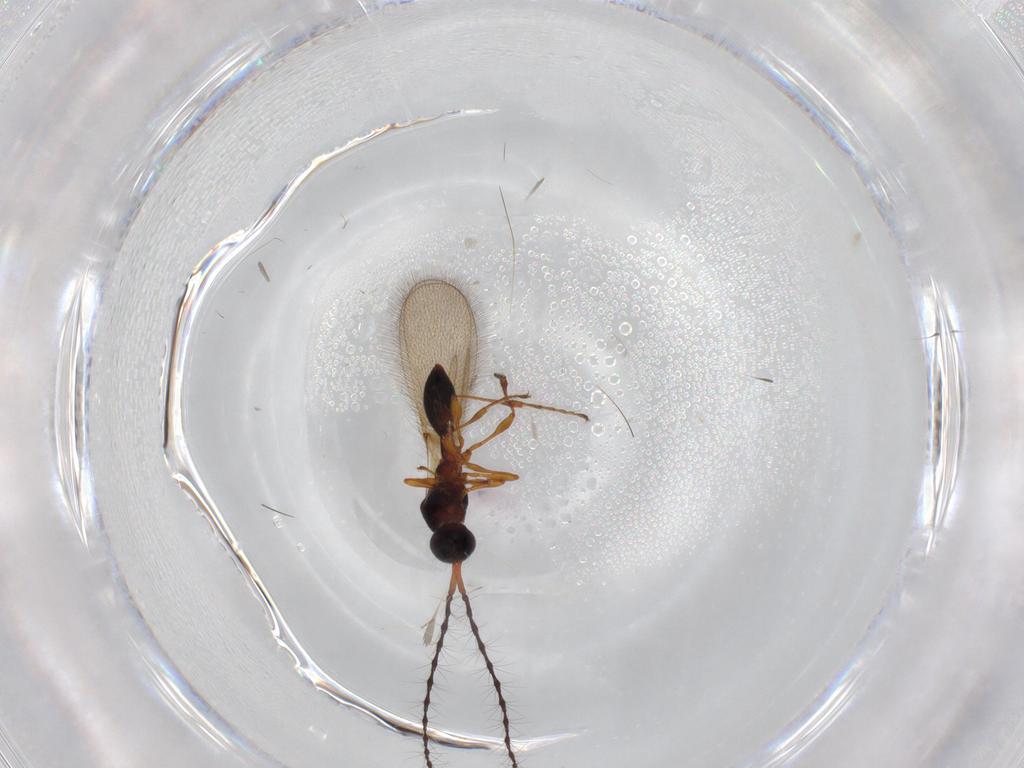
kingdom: Animalia
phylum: Arthropoda
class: Insecta
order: Hymenoptera
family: Diapriidae
